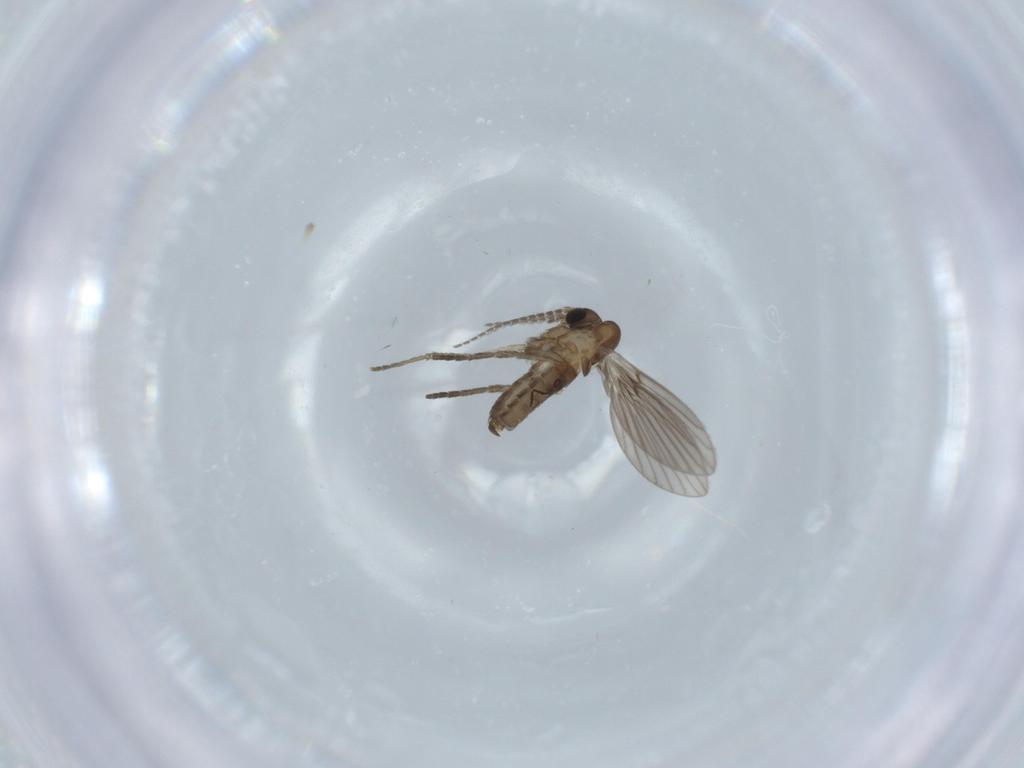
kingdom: Animalia
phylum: Arthropoda
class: Insecta
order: Diptera
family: Psychodidae
